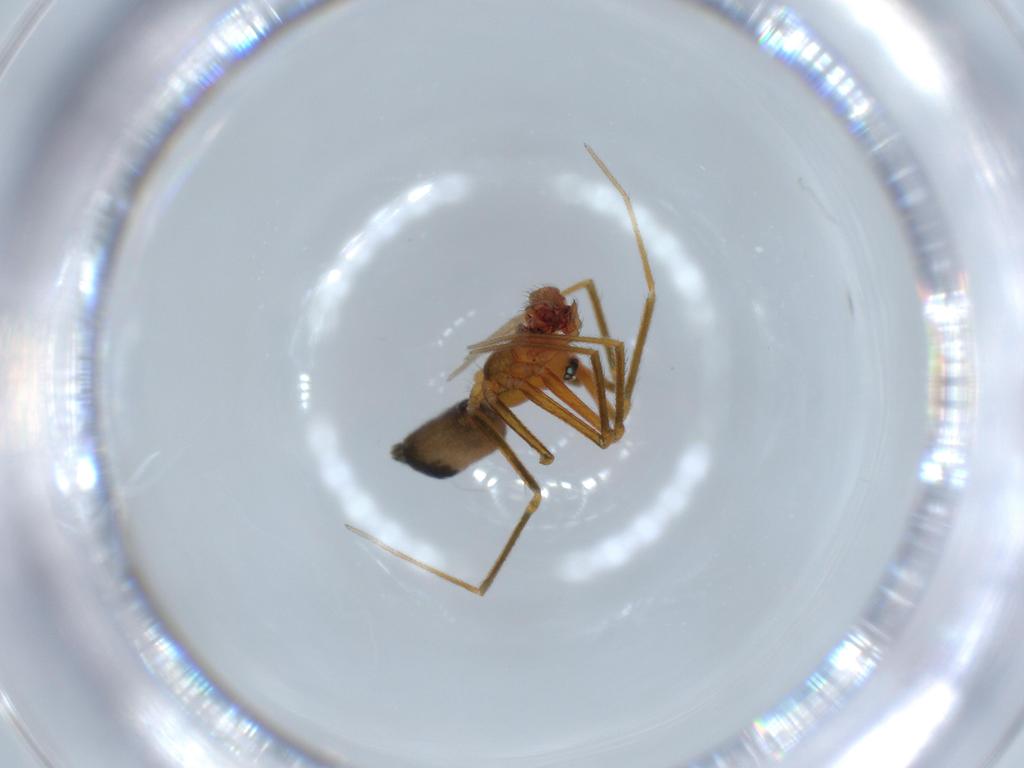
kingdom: Animalia
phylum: Arthropoda
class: Arachnida
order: Araneae
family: Linyphiidae
